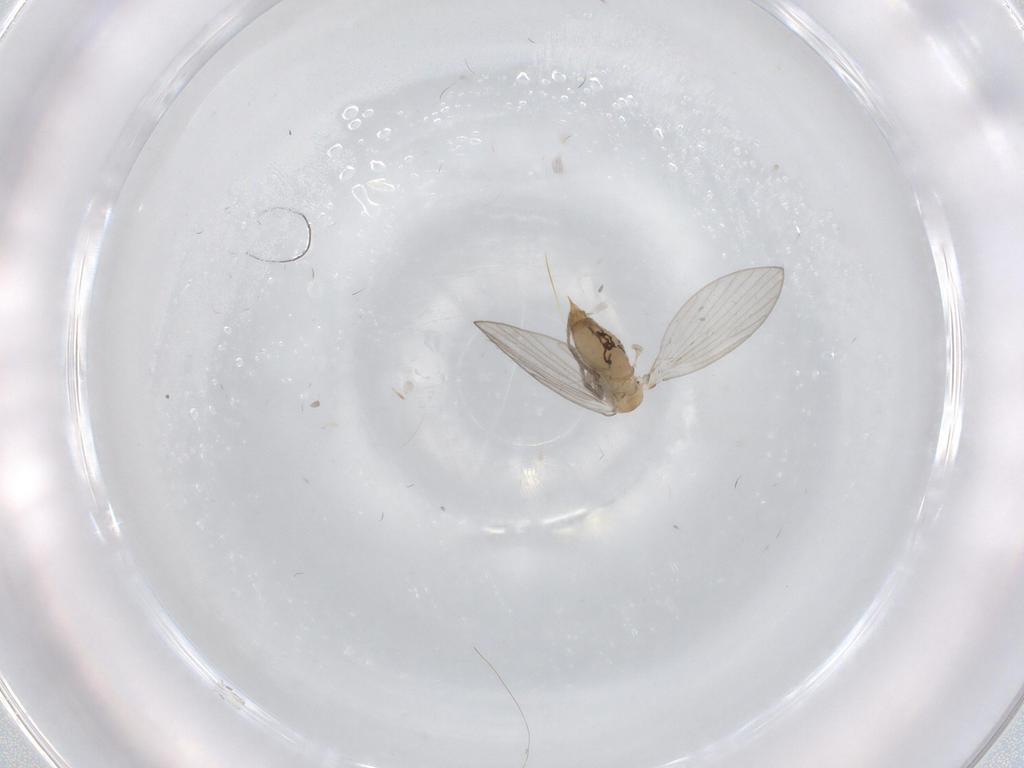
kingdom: Animalia
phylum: Arthropoda
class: Insecta
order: Diptera
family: Psychodidae
